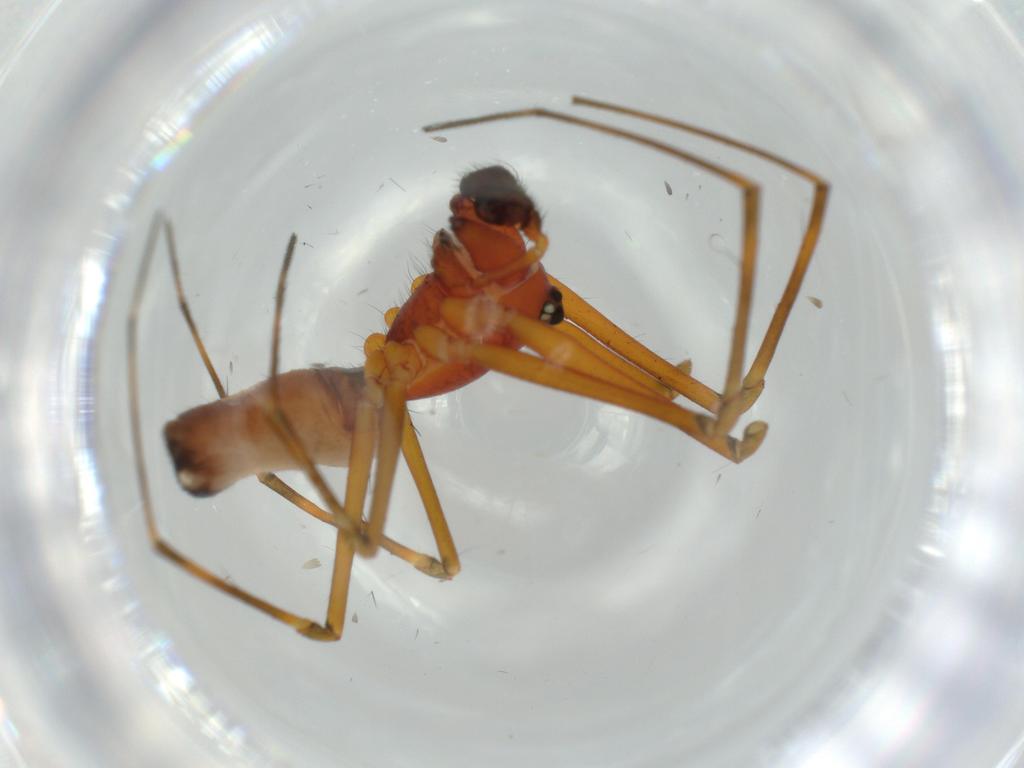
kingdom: Animalia
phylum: Arthropoda
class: Arachnida
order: Araneae
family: Linyphiidae
